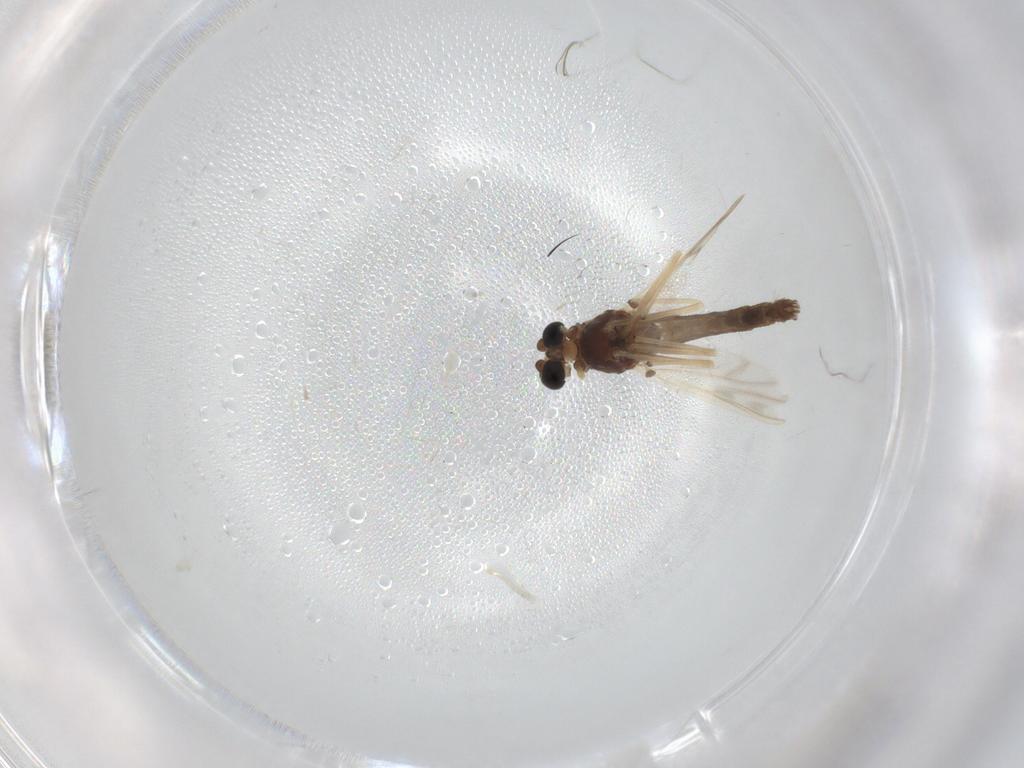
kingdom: Animalia
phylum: Arthropoda
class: Insecta
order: Diptera
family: Chironomidae
